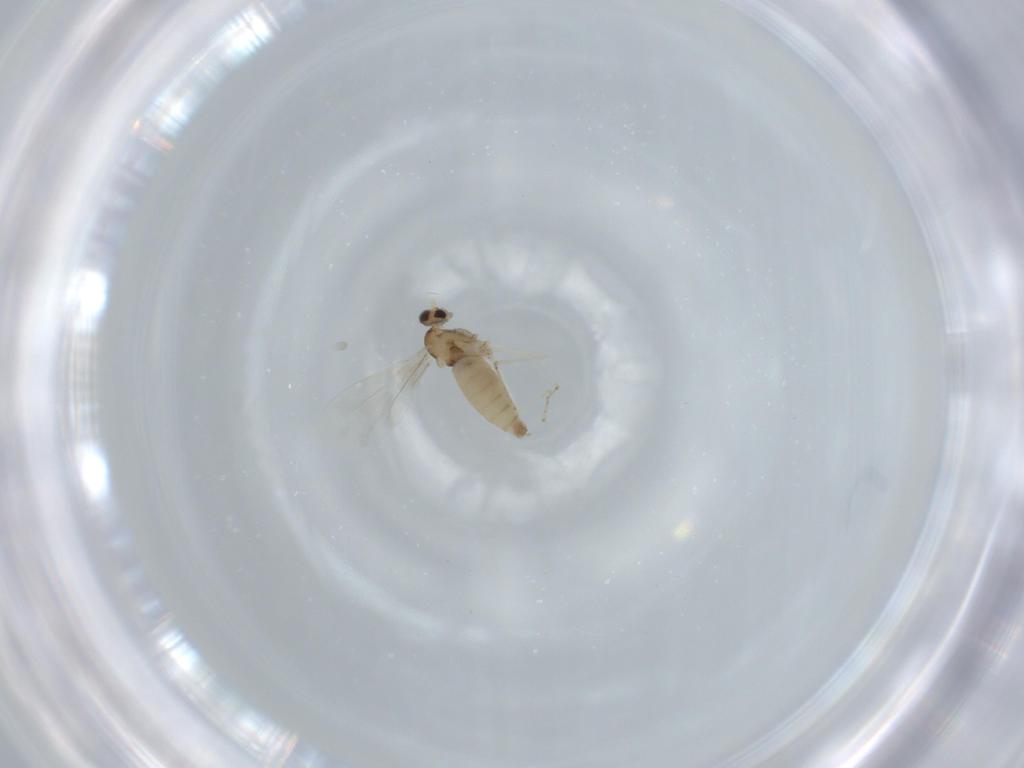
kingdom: Animalia
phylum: Arthropoda
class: Insecta
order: Diptera
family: Cecidomyiidae
